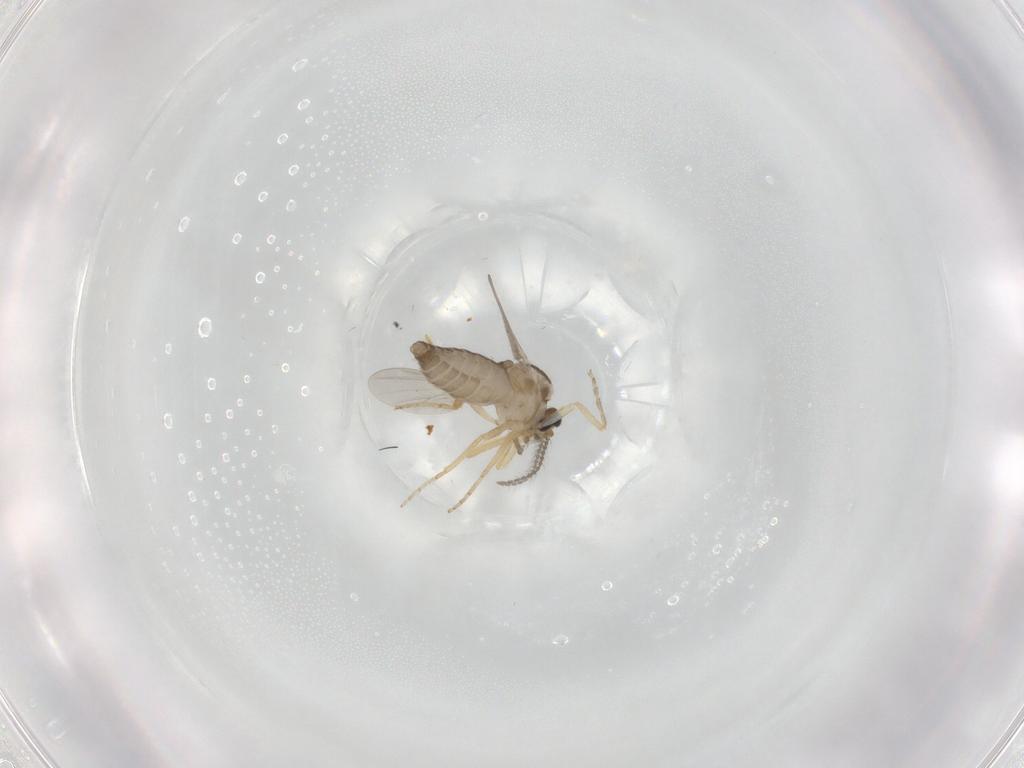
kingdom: Animalia
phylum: Arthropoda
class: Insecta
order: Diptera
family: Ceratopogonidae
